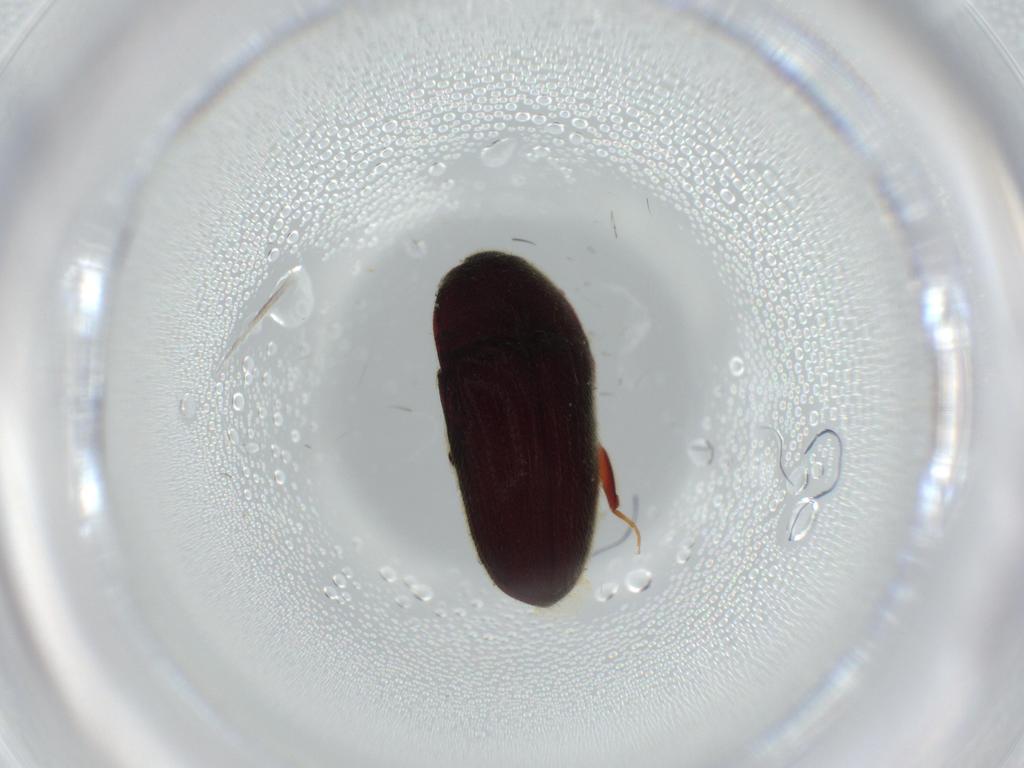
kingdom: Animalia
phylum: Arthropoda
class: Insecta
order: Coleoptera
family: Throscidae
